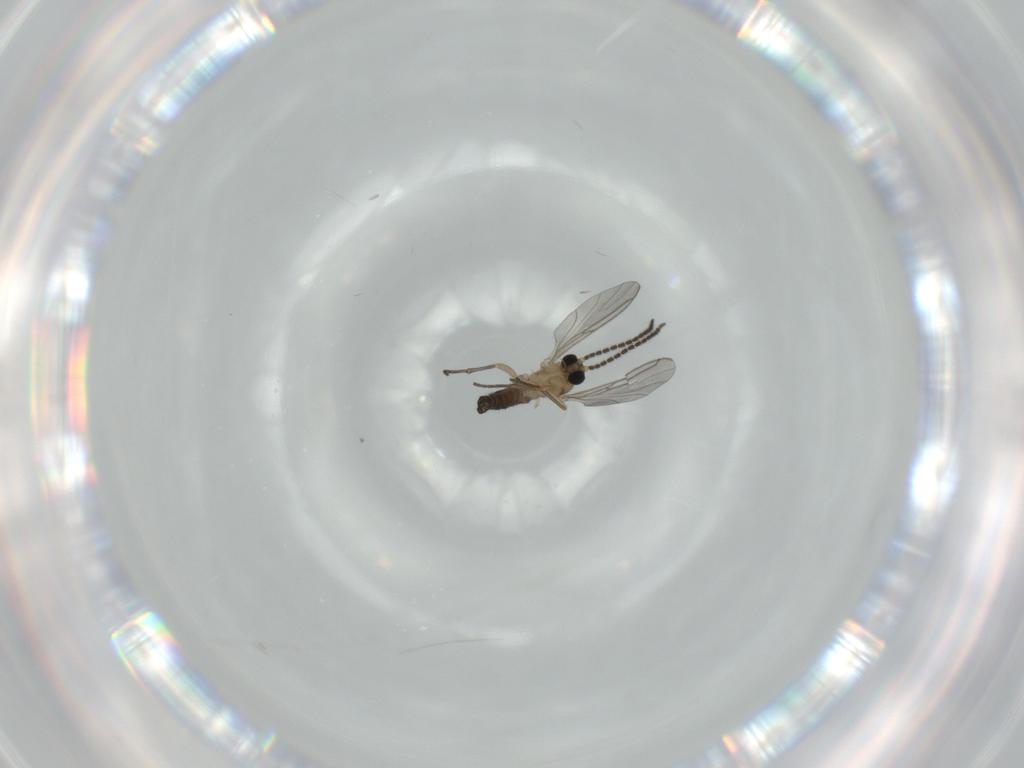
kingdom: Animalia
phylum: Arthropoda
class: Insecta
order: Diptera
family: Sciaridae
